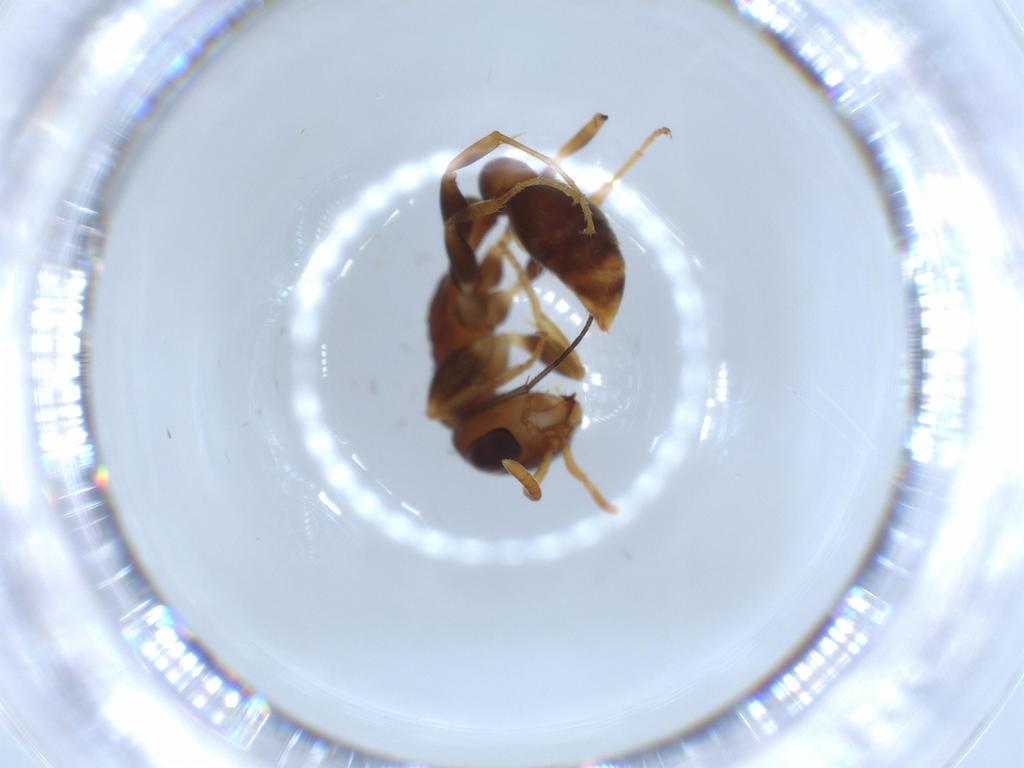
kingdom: Animalia
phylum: Arthropoda
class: Insecta
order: Hymenoptera
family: Formicidae
